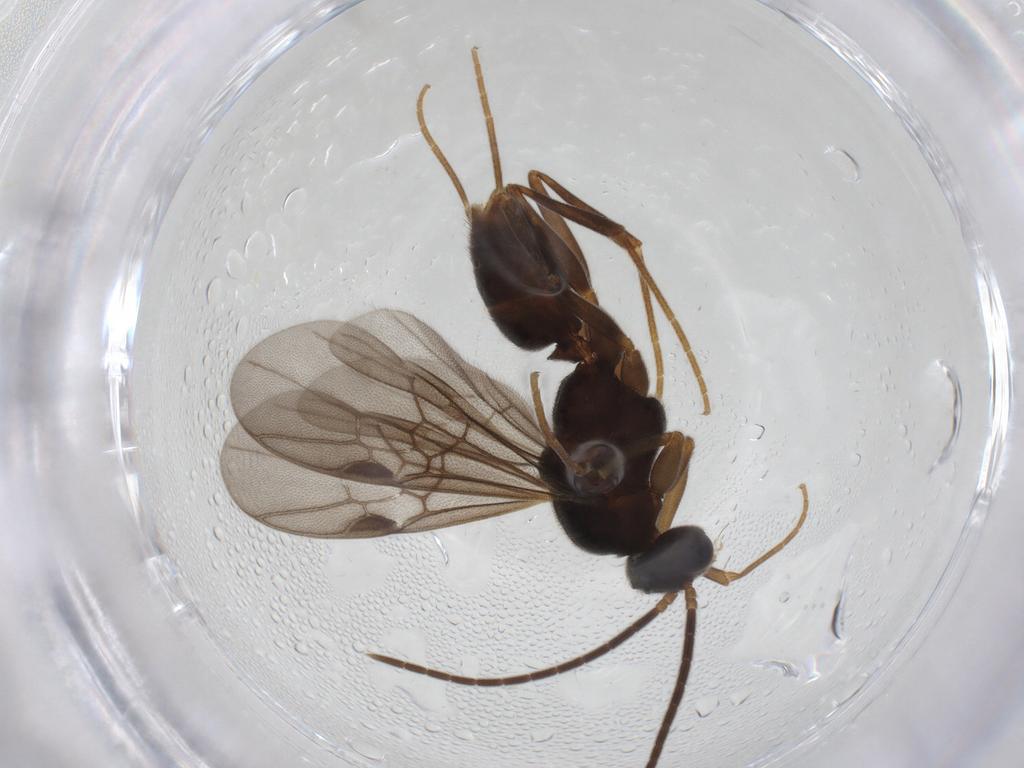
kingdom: Animalia
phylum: Arthropoda
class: Insecta
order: Hymenoptera
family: Formicidae
